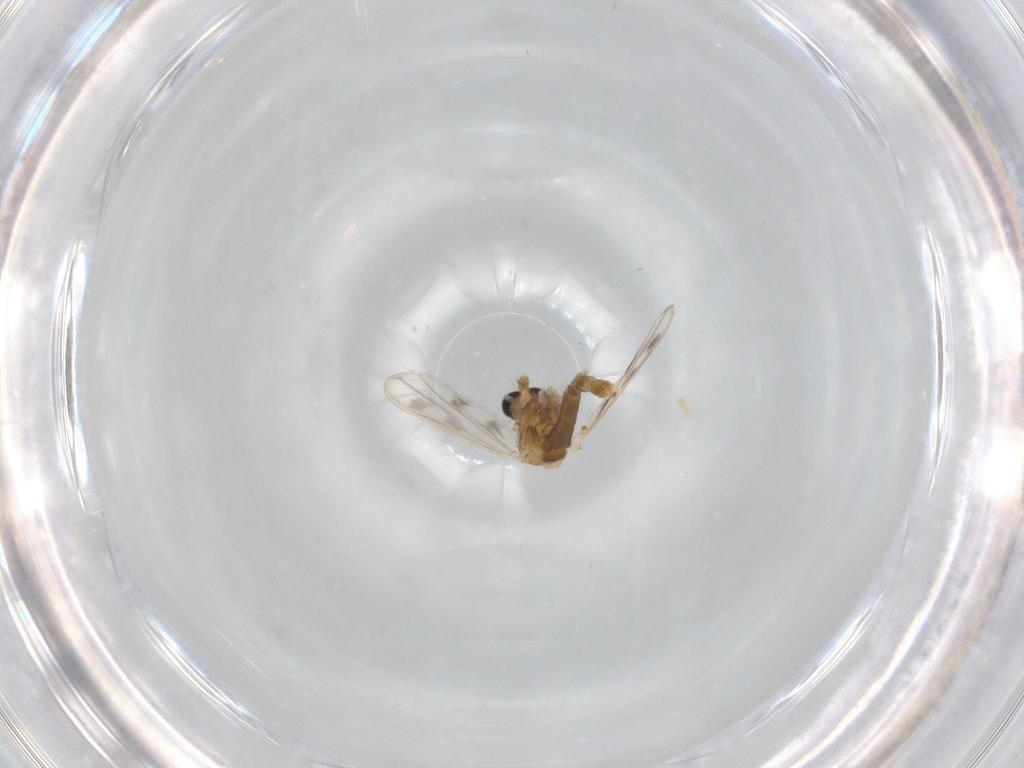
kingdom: Animalia
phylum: Arthropoda
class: Insecta
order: Diptera
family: Chironomidae
